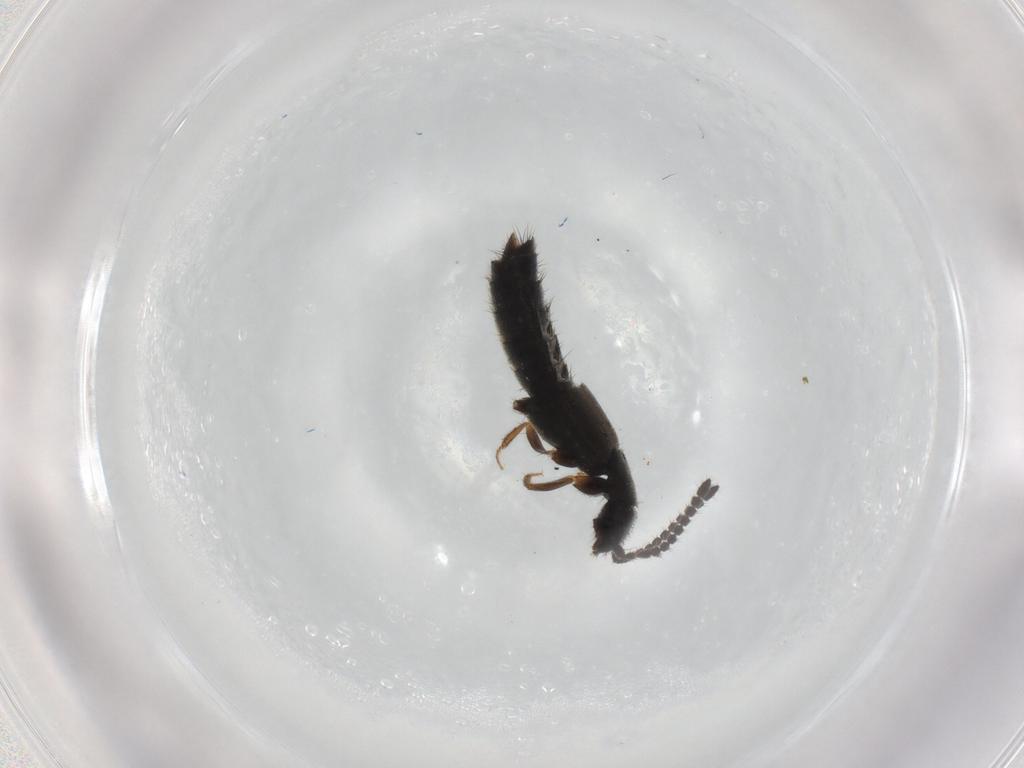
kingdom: Animalia
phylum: Arthropoda
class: Insecta
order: Coleoptera
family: Staphylinidae
